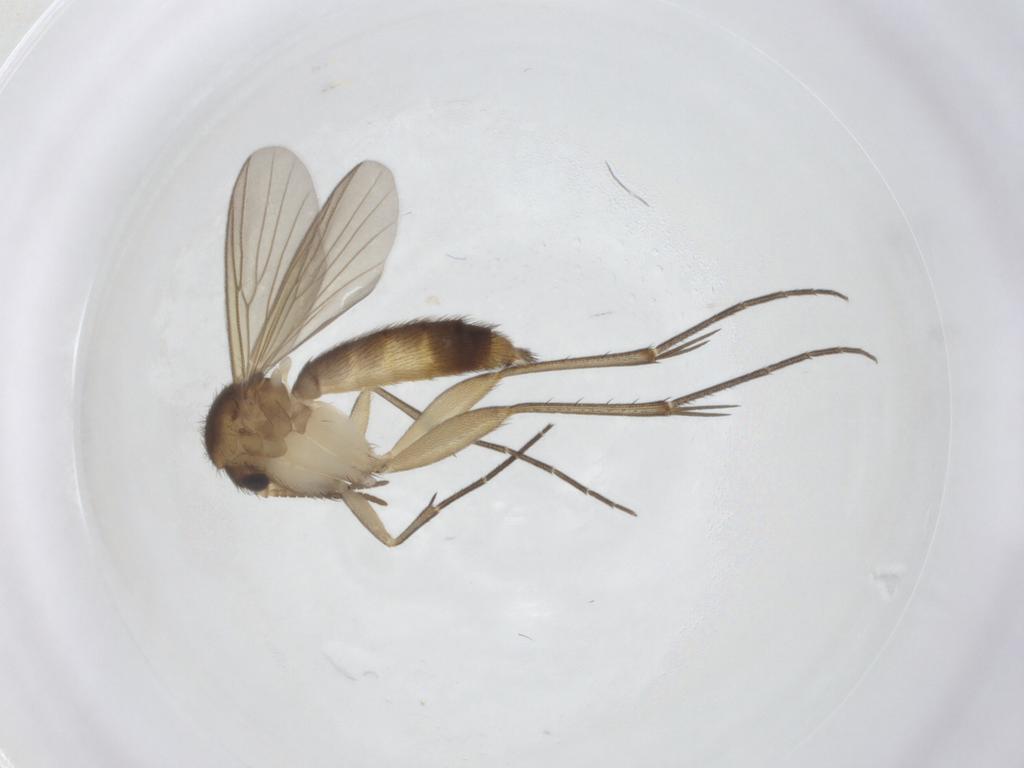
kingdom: Animalia
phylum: Arthropoda
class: Insecta
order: Diptera
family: Mycetophilidae
